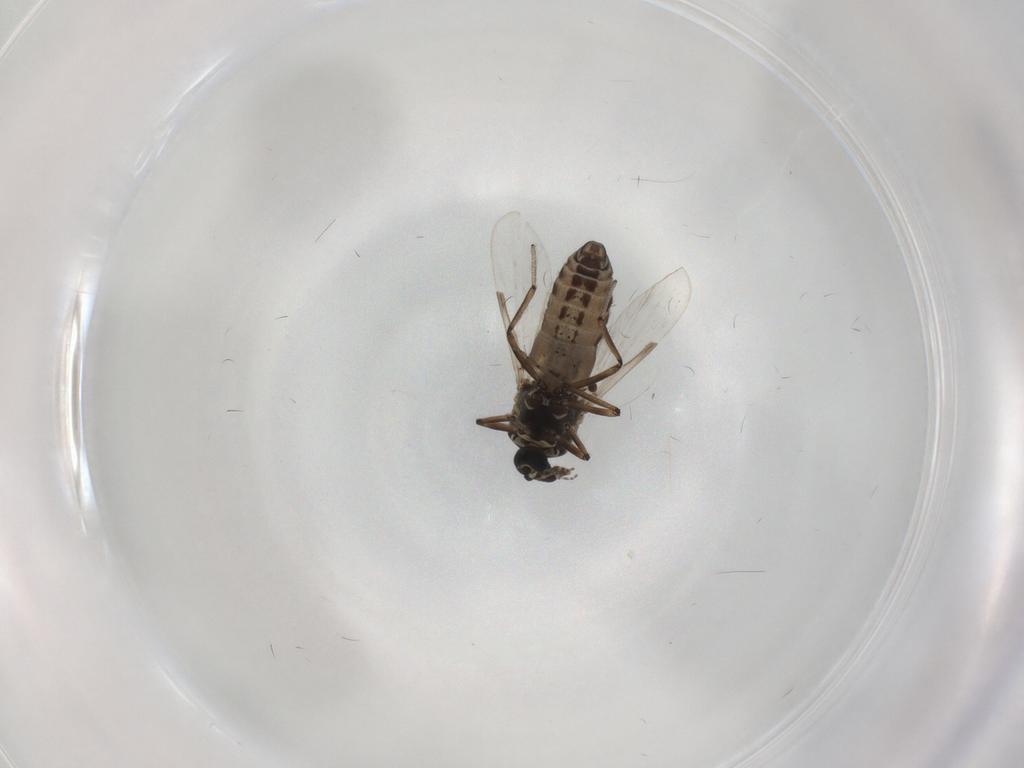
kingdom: Animalia
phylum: Arthropoda
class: Insecta
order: Diptera
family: Ceratopogonidae
